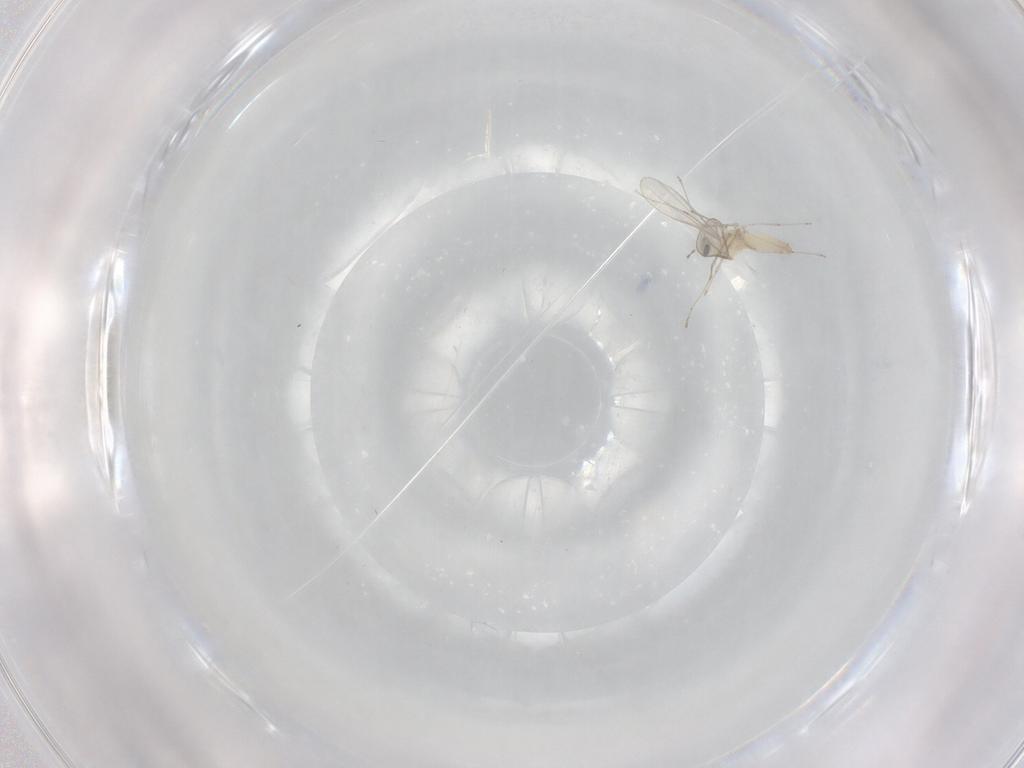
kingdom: Animalia
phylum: Arthropoda
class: Insecta
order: Diptera
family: Cecidomyiidae
